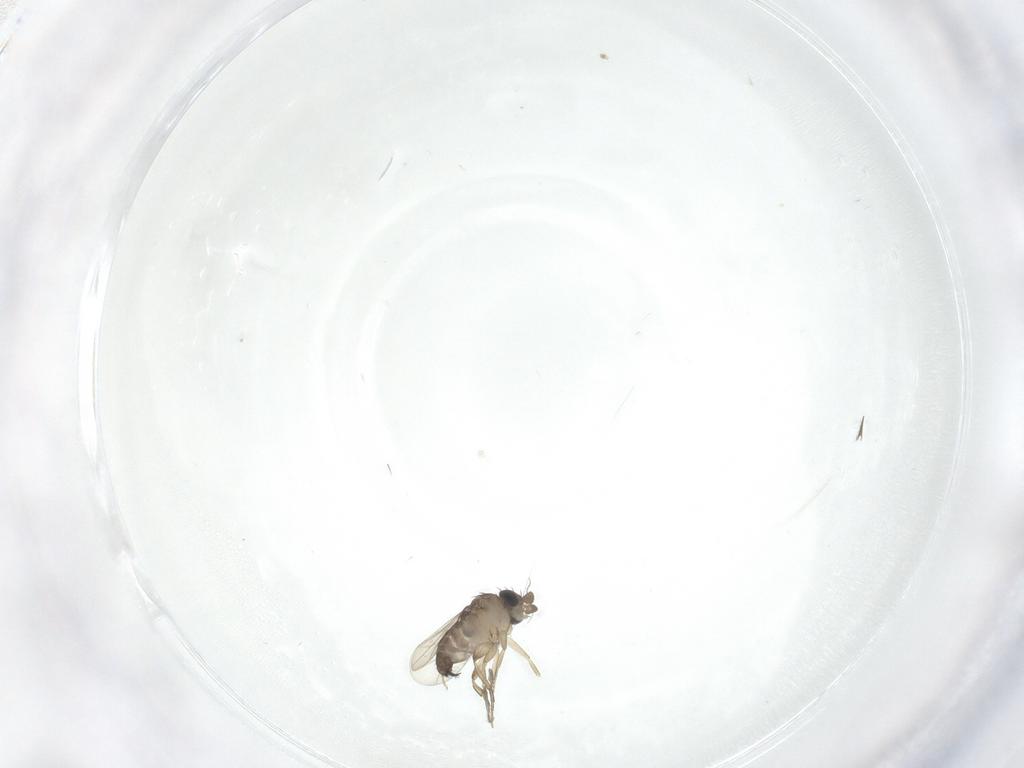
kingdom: Animalia
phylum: Arthropoda
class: Insecta
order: Diptera
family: Phoridae
